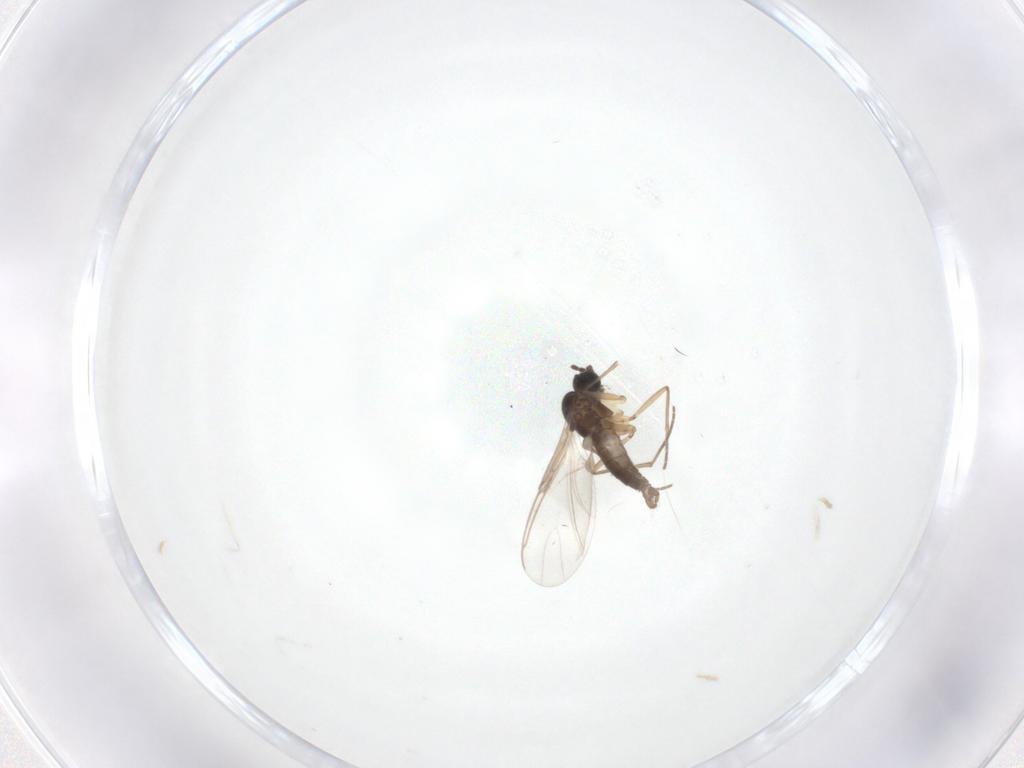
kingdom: Animalia
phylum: Arthropoda
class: Insecta
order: Diptera
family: Sciaridae
